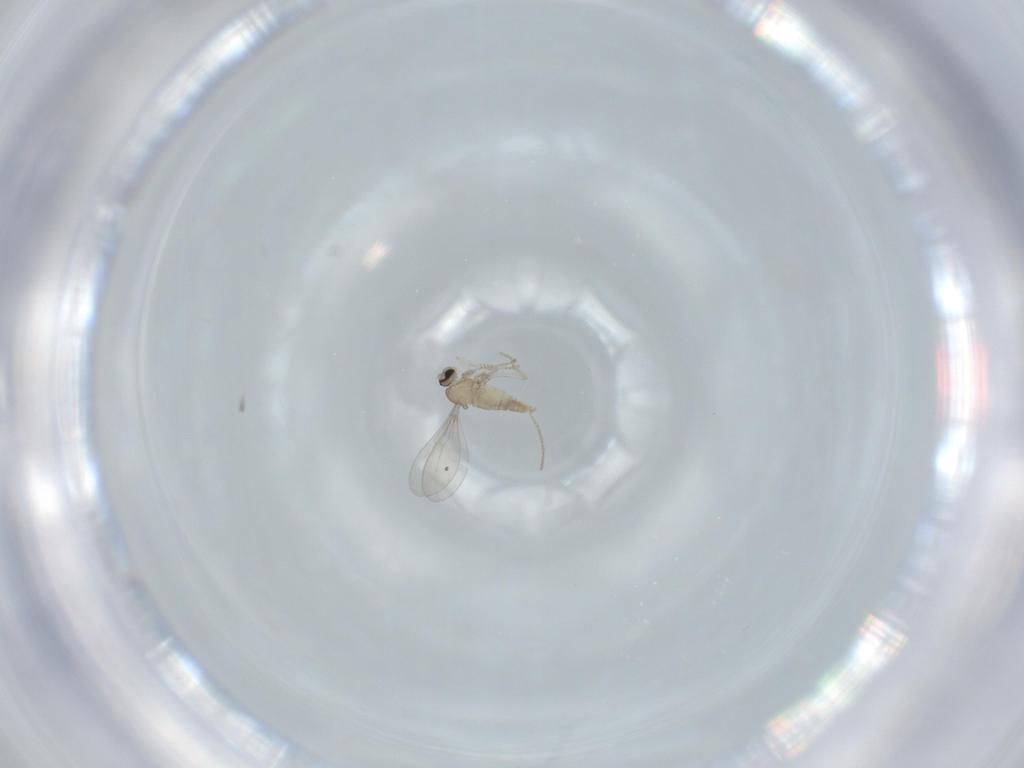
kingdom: Animalia
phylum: Arthropoda
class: Insecta
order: Diptera
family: Cecidomyiidae
